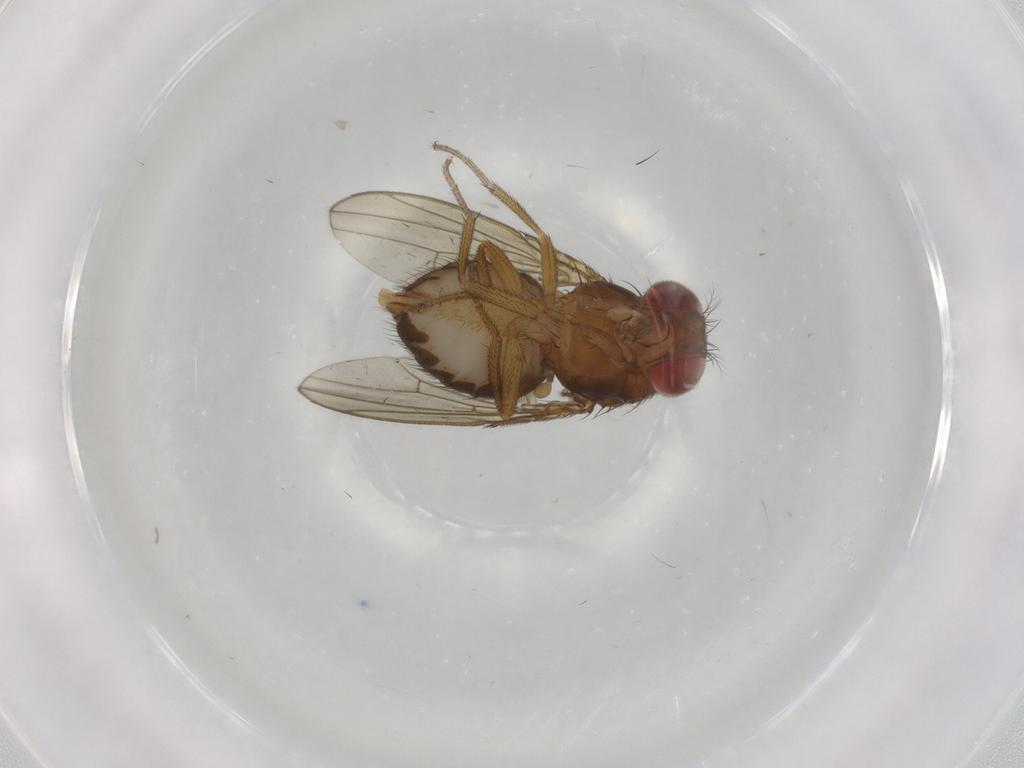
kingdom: Animalia
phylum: Arthropoda
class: Insecta
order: Diptera
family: Drosophilidae
